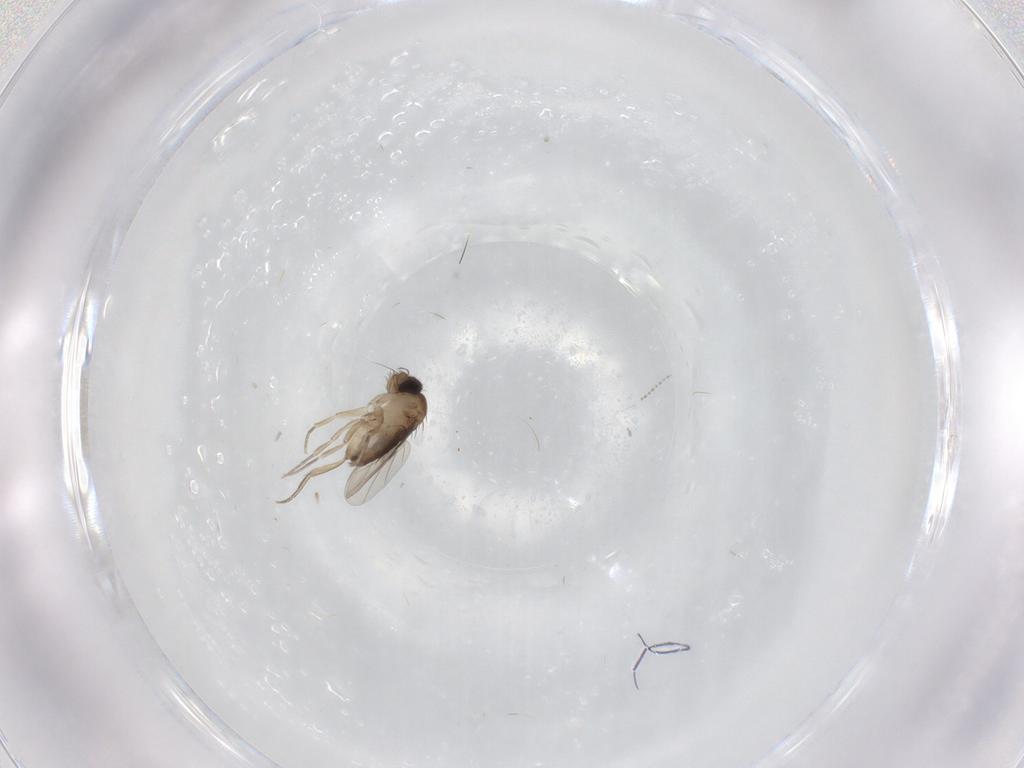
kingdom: Animalia
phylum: Arthropoda
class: Insecta
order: Diptera
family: Phoridae
